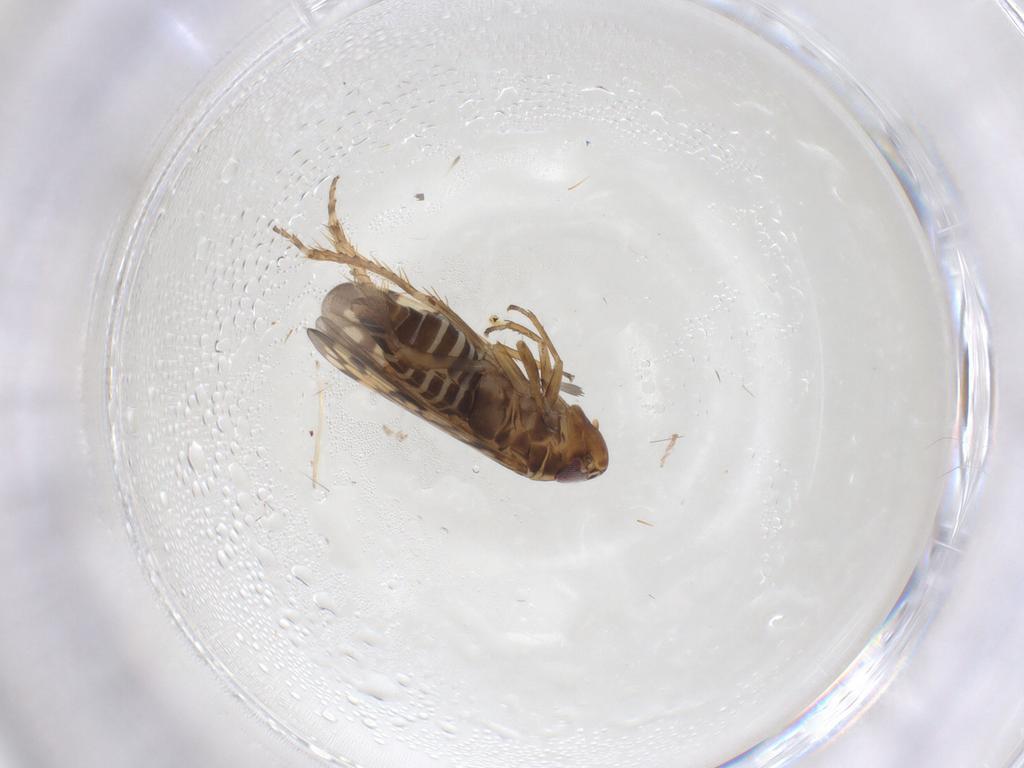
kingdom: Animalia
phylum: Arthropoda
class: Insecta
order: Hemiptera
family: Cicadellidae
